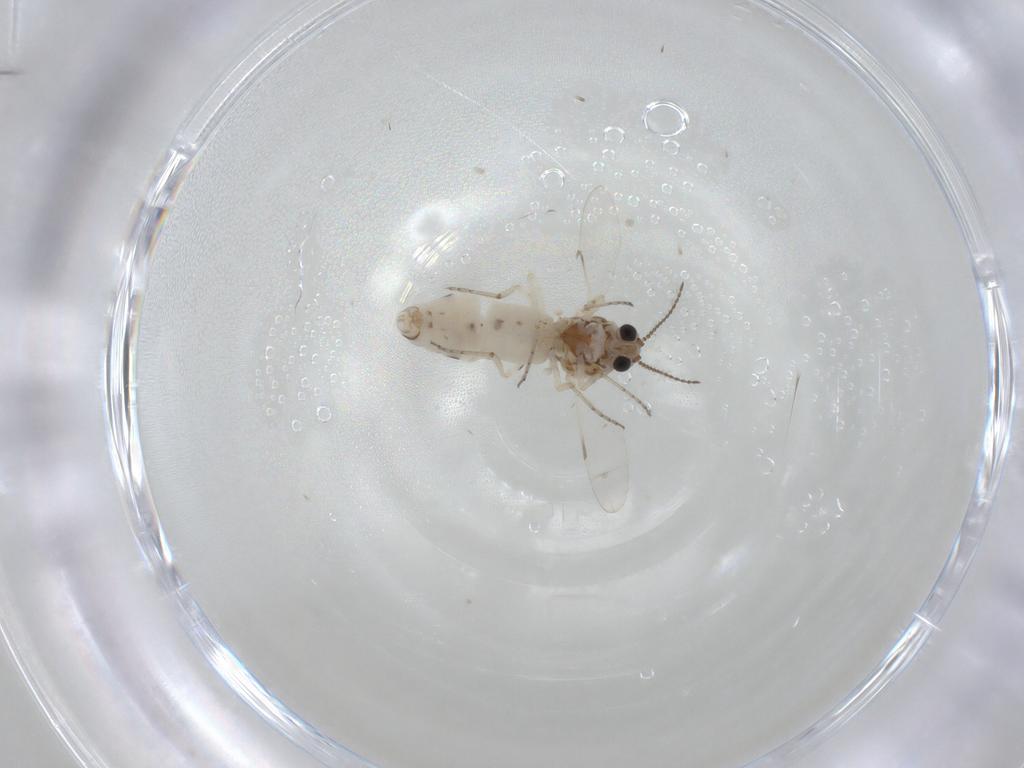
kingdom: Animalia
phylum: Arthropoda
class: Insecta
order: Diptera
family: Ceratopogonidae
